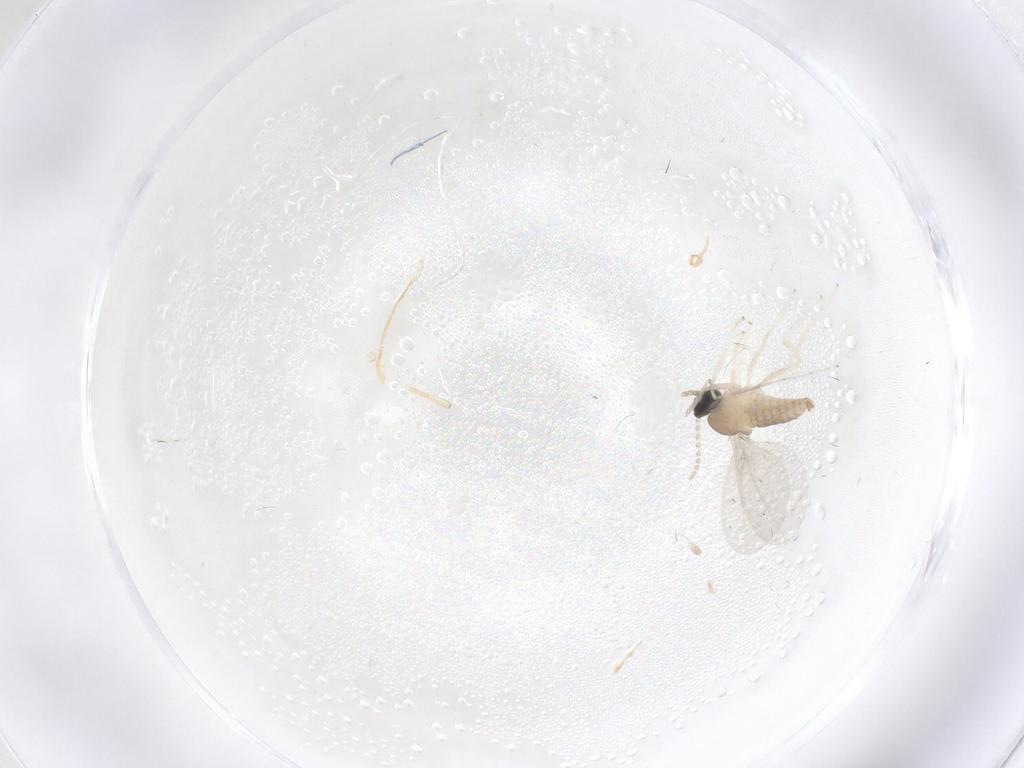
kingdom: Animalia
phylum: Arthropoda
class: Insecta
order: Diptera
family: Cecidomyiidae
